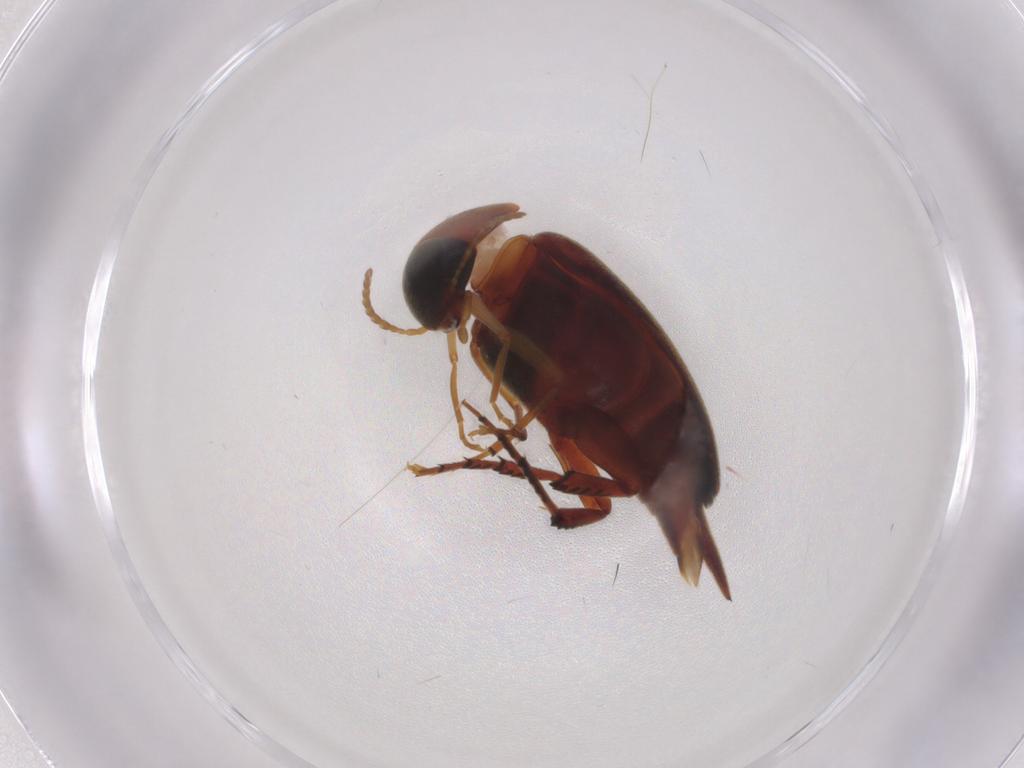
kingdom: Animalia
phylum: Arthropoda
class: Insecta
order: Coleoptera
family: Mordellidae
